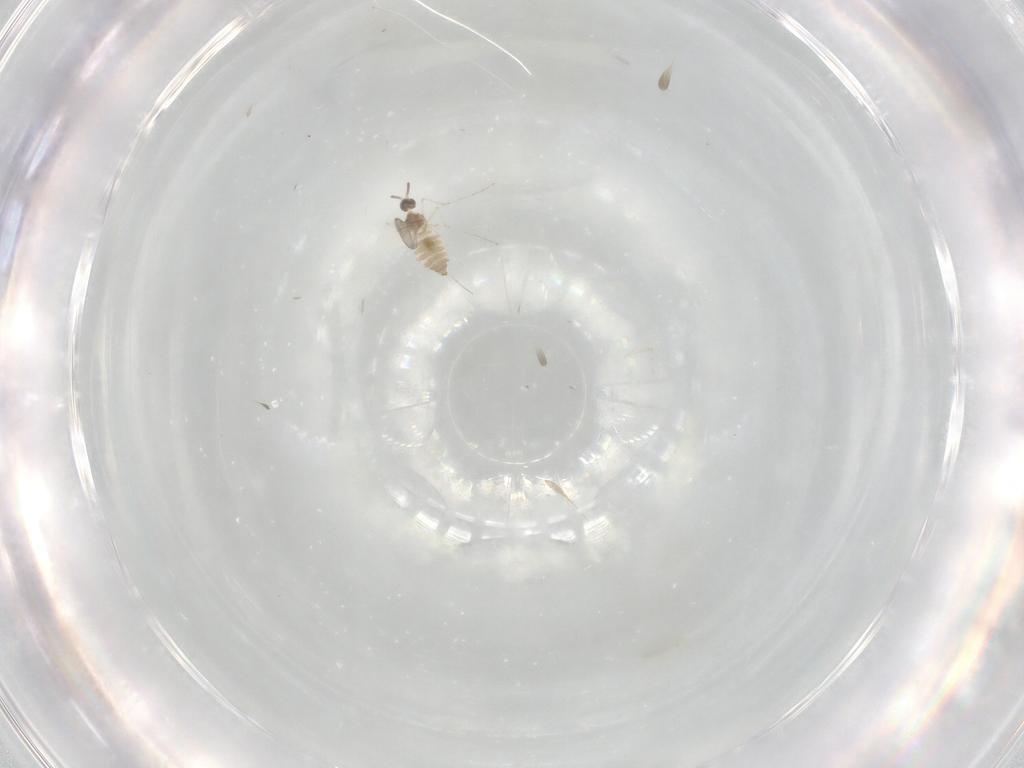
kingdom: Animalia
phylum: Arthropoda
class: Insecta
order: Diptera
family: Cecidomyiidae
